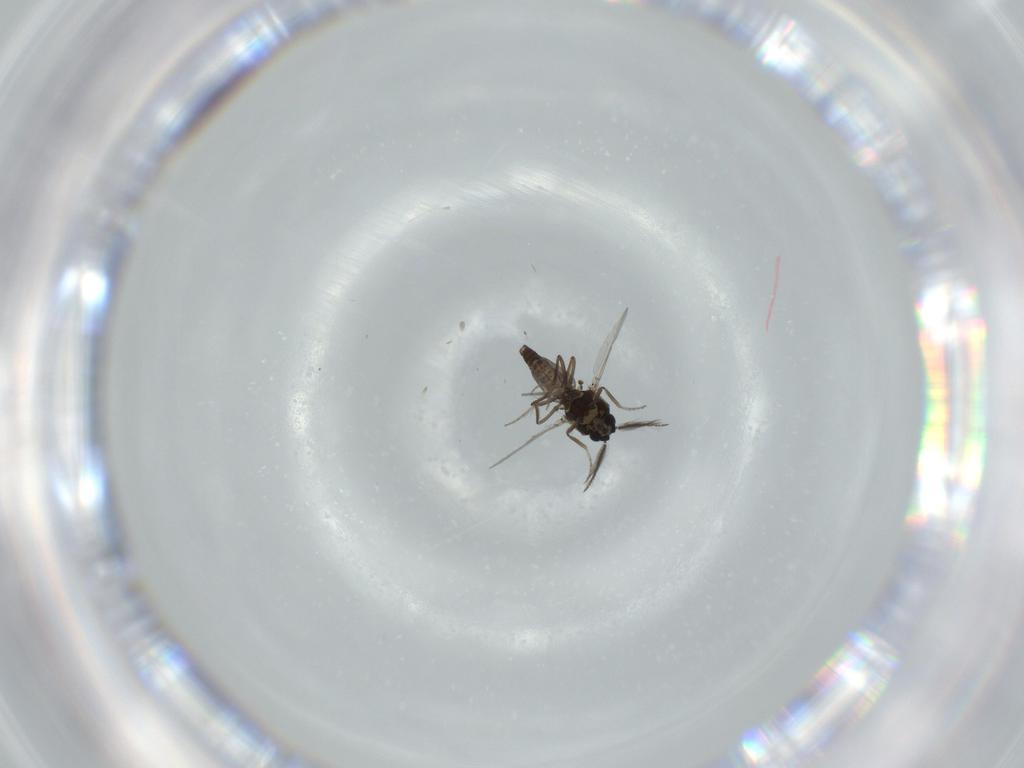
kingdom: Animalia
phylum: Arthropoda
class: Insecta
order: Diptera
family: Ceratopogonidae
